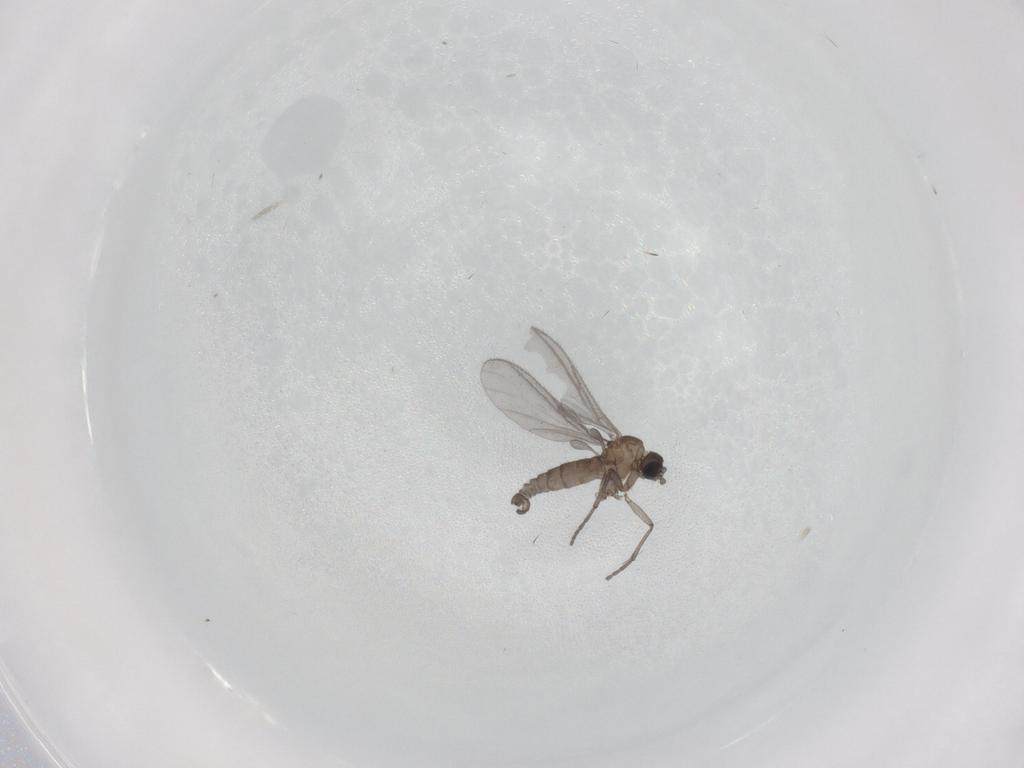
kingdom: Animalia
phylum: Arthropoda
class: Insecta
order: Diptera
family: Sciaridae
